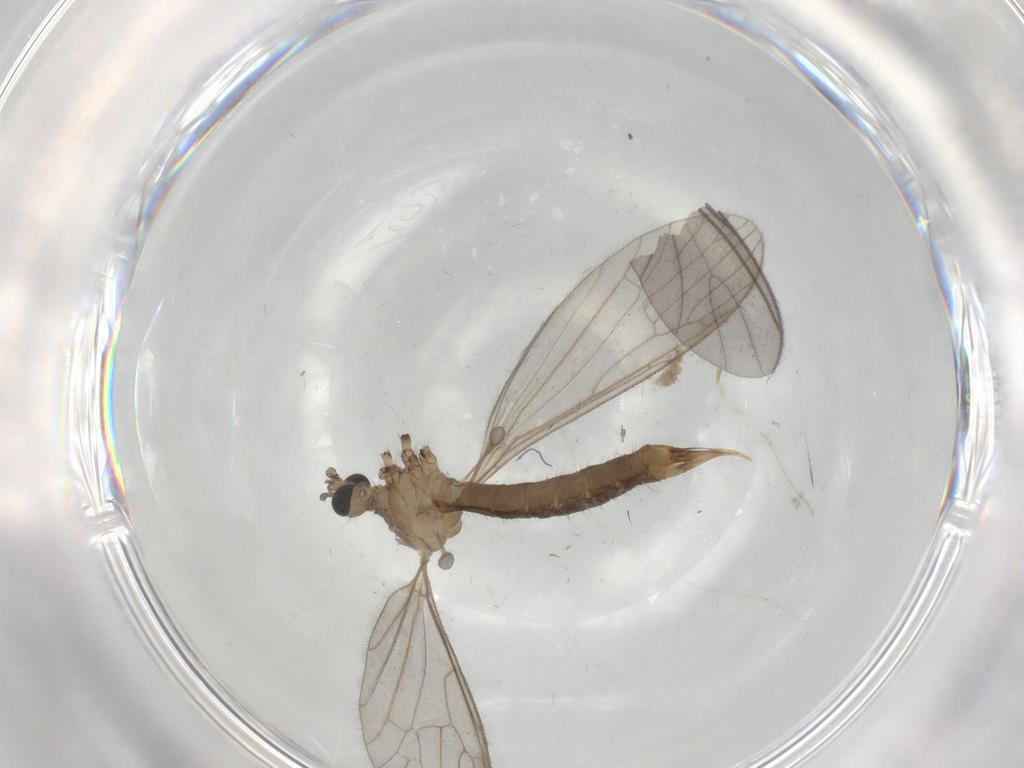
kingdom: Animalia
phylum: Arthropoda
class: Insecta
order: Diptera
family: Limoniidae
